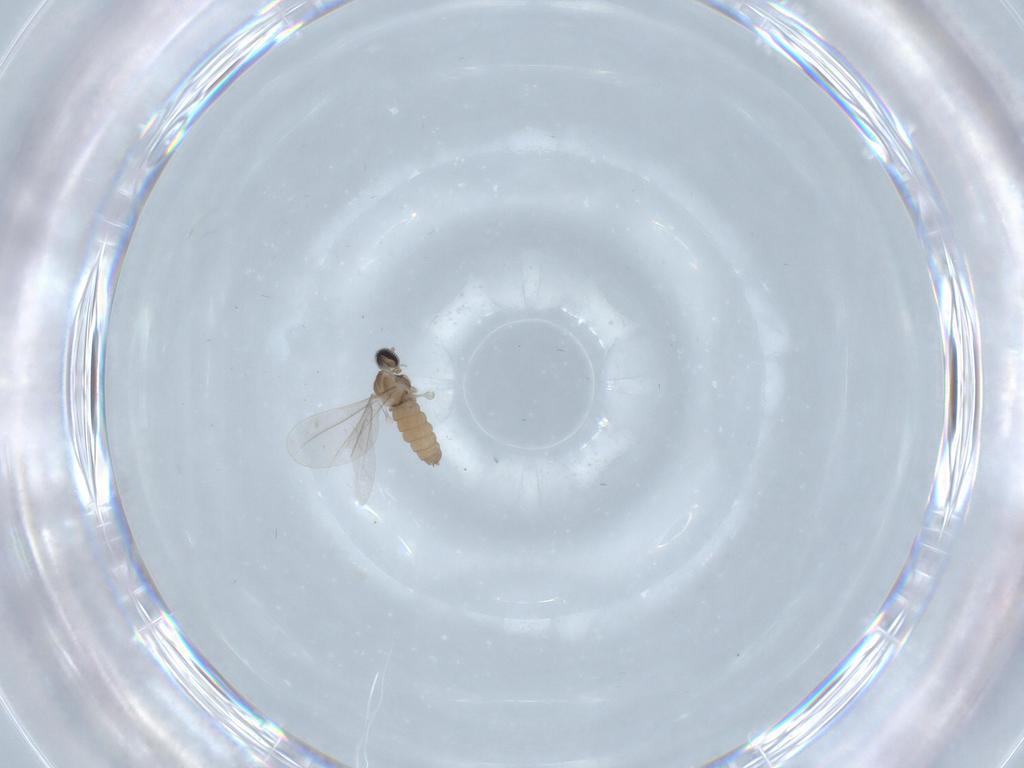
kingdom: Animalia
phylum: Arthropoda
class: Insecta
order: Diptera
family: Cecidomyiidae
